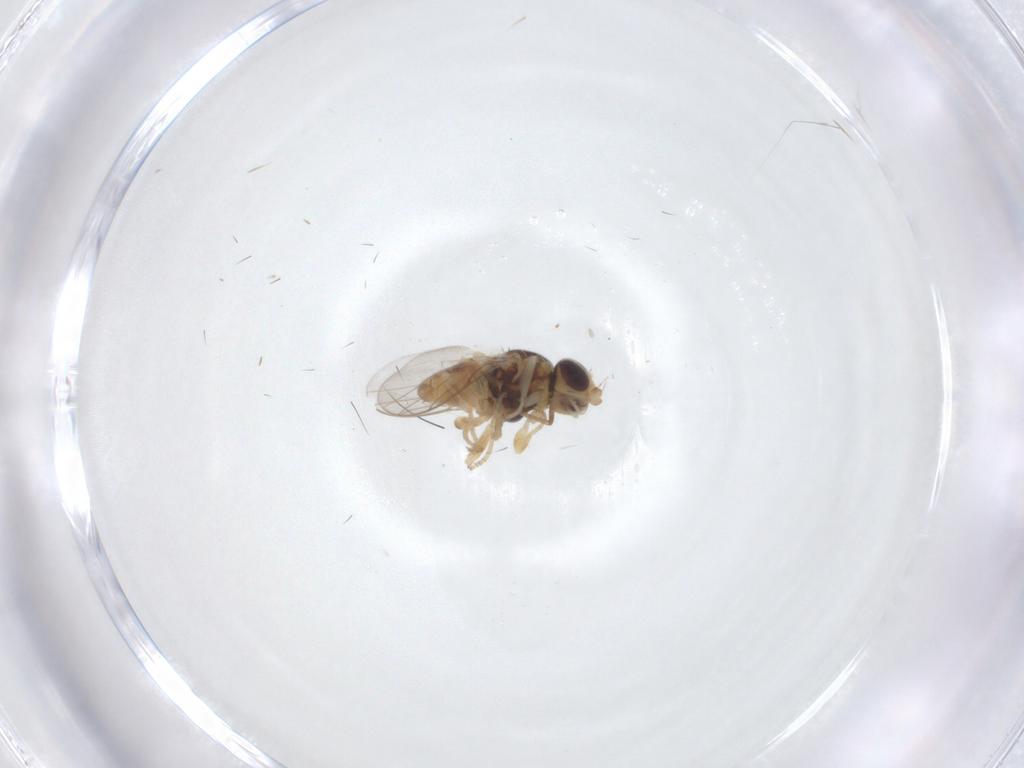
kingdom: Animalia
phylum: Arthropoda
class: Insecta
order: Diptera
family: Chloropidae
